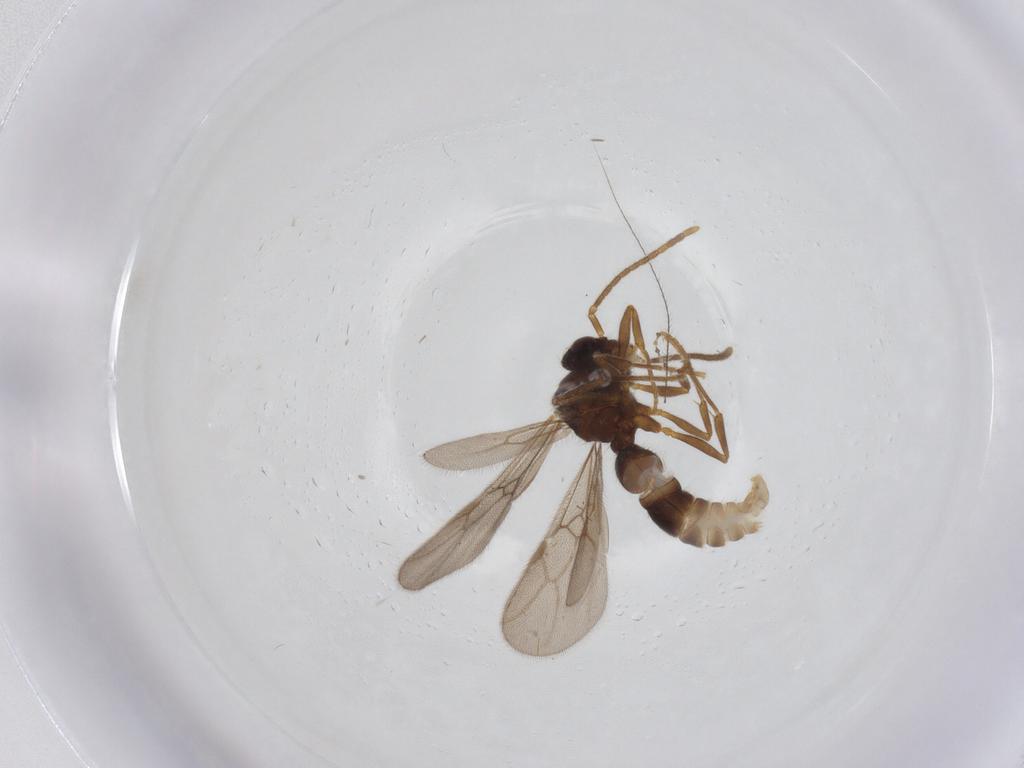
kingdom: Animalia
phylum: Arthropoda
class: Insecta
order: Hymenoptera
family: Formicidae
